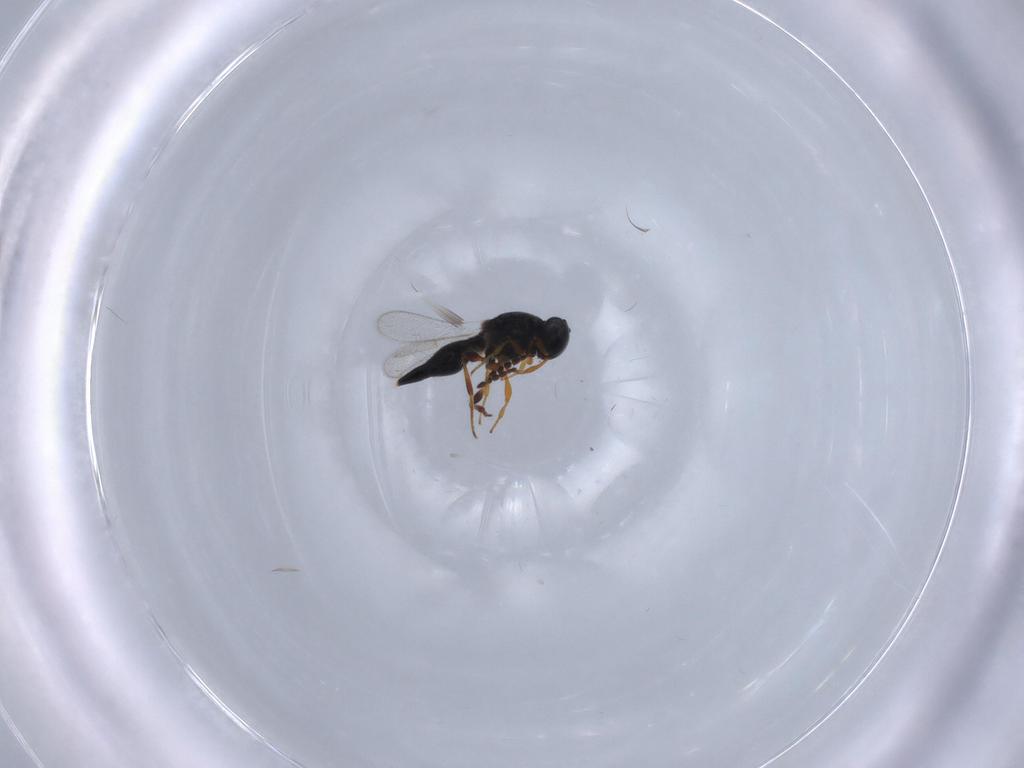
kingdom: Animalia
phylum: Arthropoda
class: Insecta
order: Hymenoptera
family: Platygastridae
